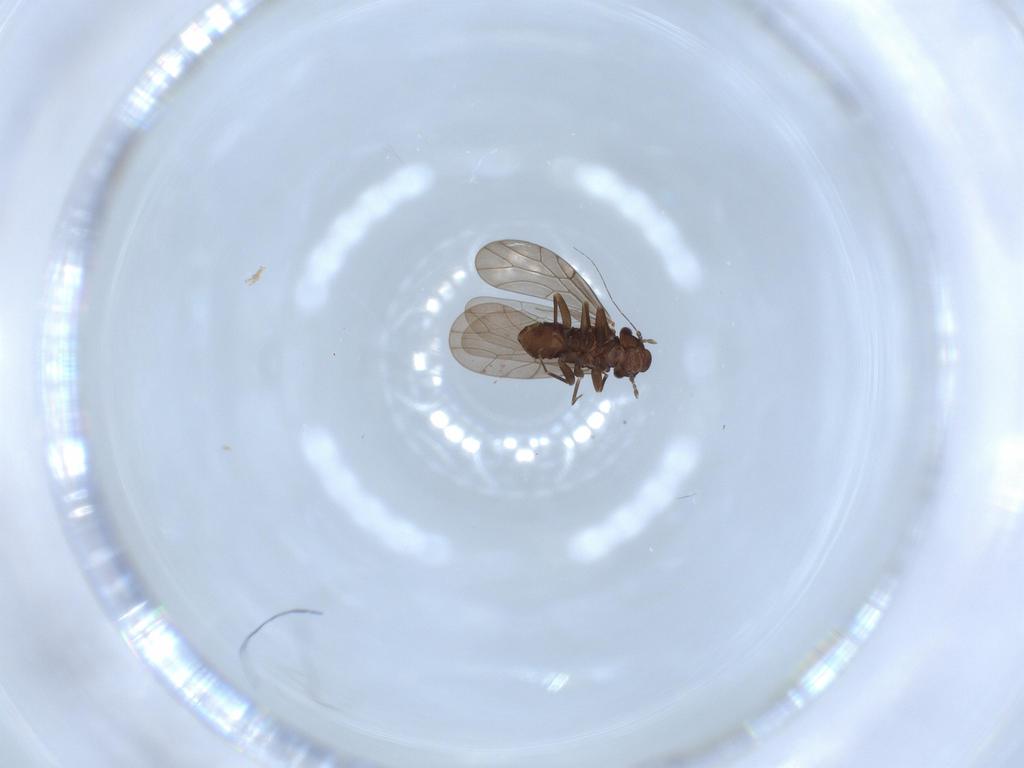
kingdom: Animalia
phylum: Arthropoda
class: Insecta
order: Psocodea
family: Ectopsocidae
